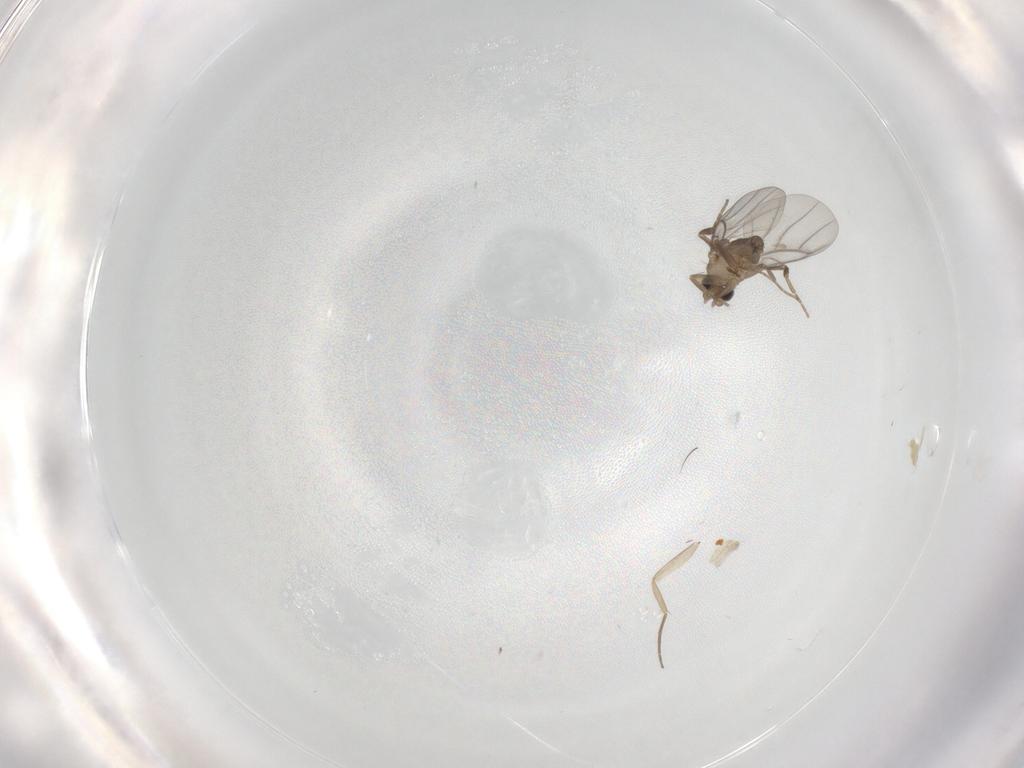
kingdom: Animalia
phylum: Arthropoda
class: Insecta
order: Diptera
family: Phoridae
